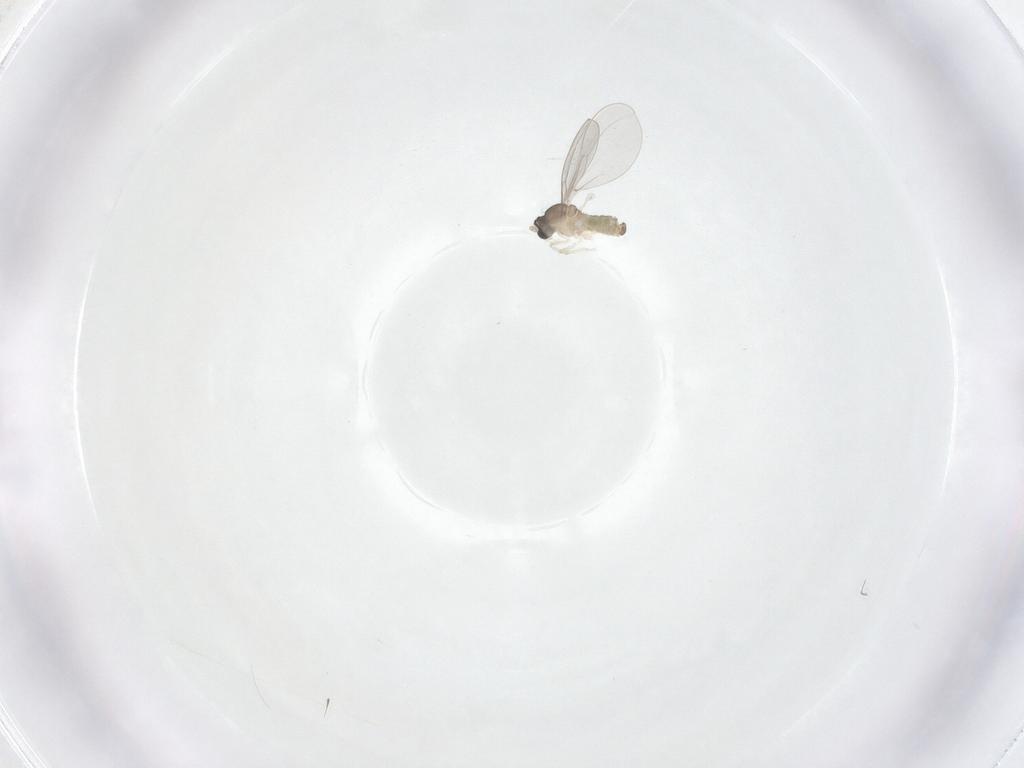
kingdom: Animalia
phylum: Arthropoda
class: Insecta
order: Diptera
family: Cecidomyiidae
